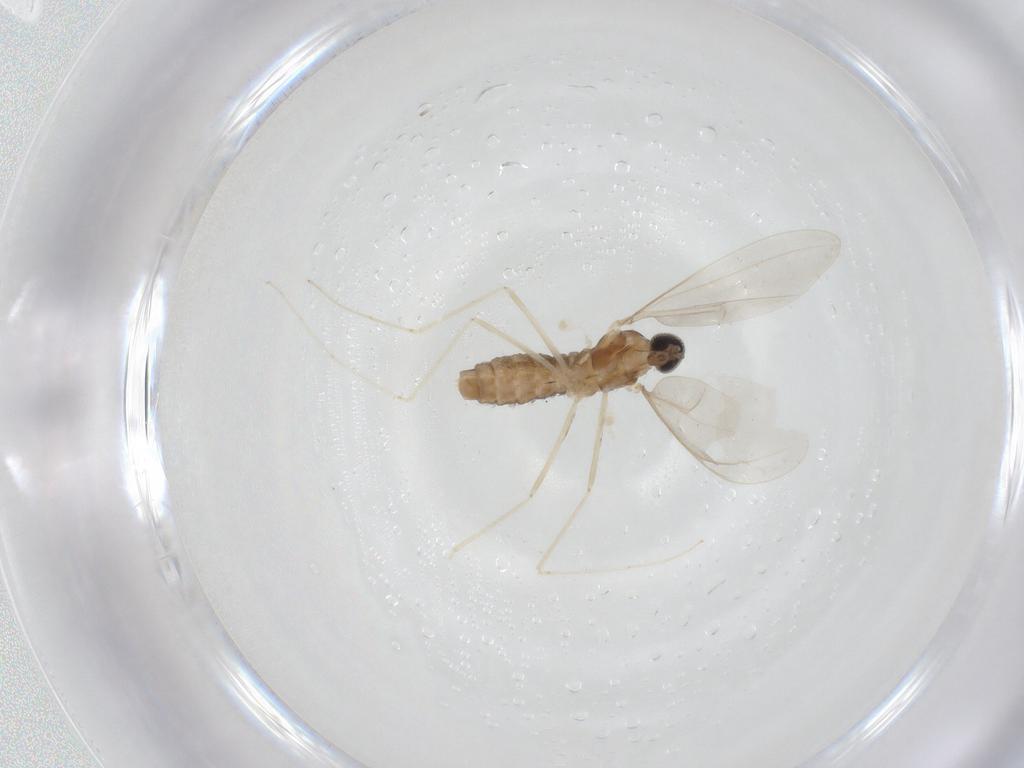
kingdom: Animalia
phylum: Arthropoda
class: Insecta
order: Diptera
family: Cecidomyiidae
